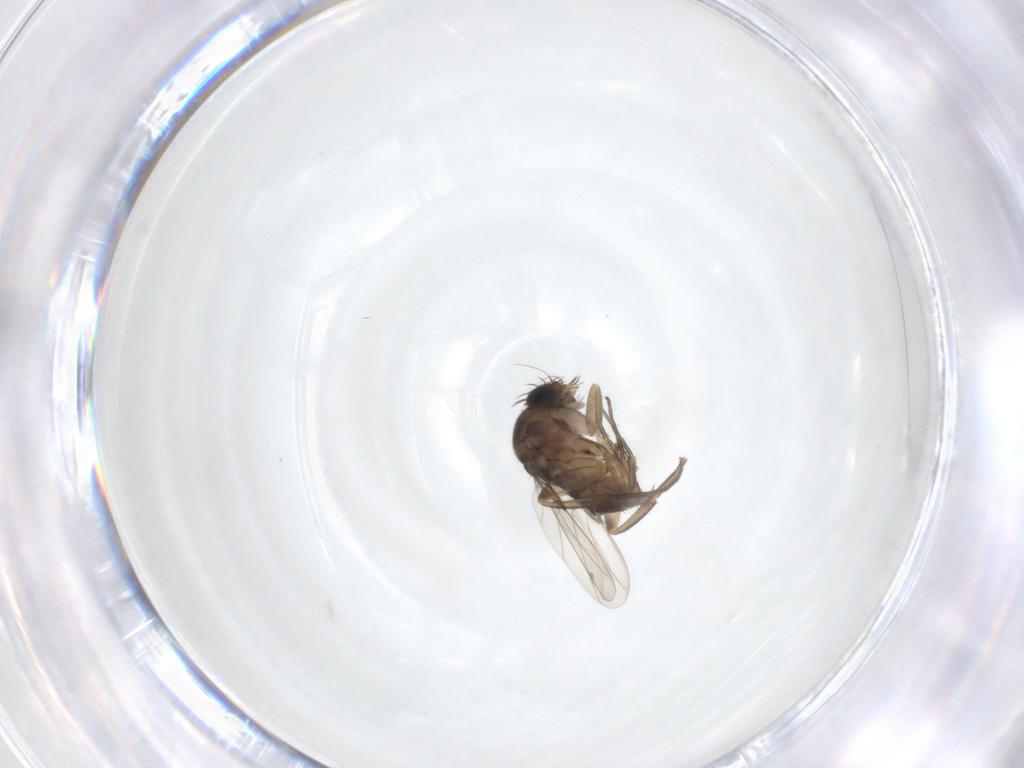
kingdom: Animalia
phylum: Arthropoda
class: Insecta
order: Diptera
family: Phoridae
